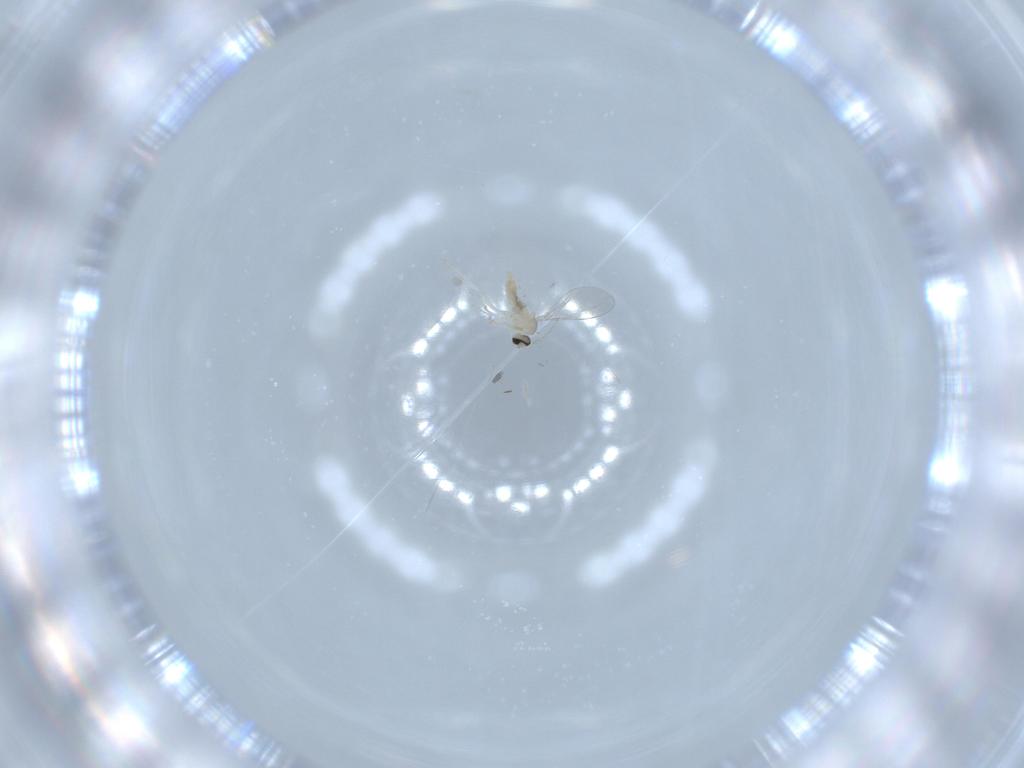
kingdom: Animalia
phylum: Arthropoda
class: Insecta
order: Diptera
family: Cecidomyiidae
